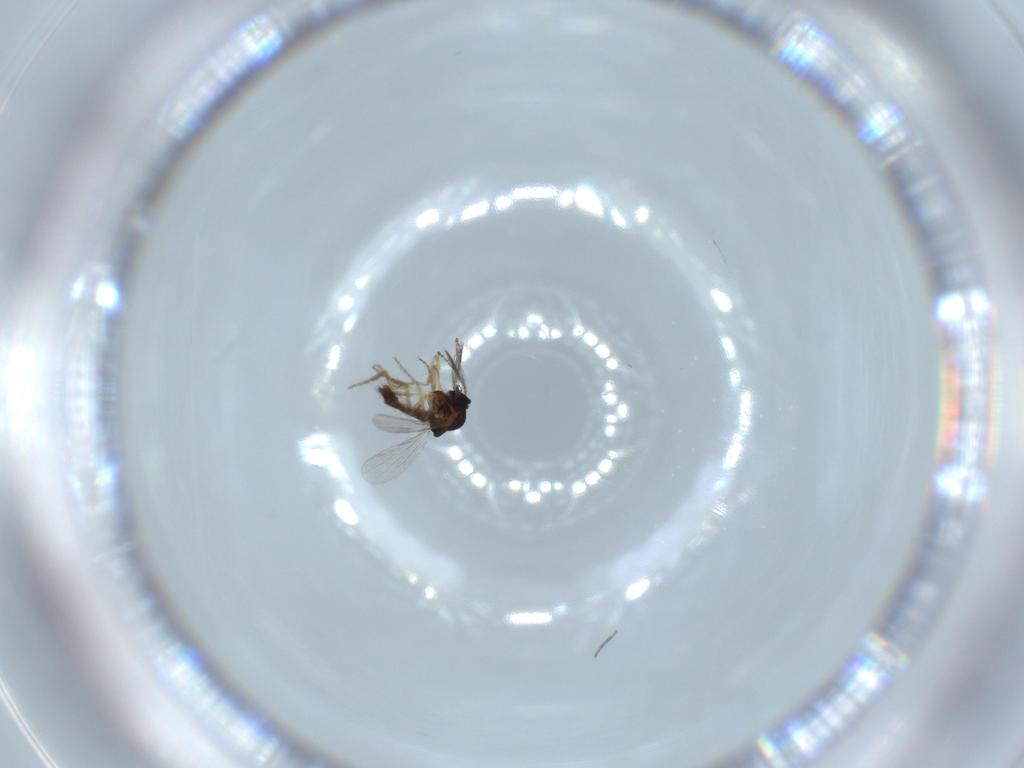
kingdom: Animalia
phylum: Arthropoda
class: Insecta
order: Diptera
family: Ceratopogonidae
